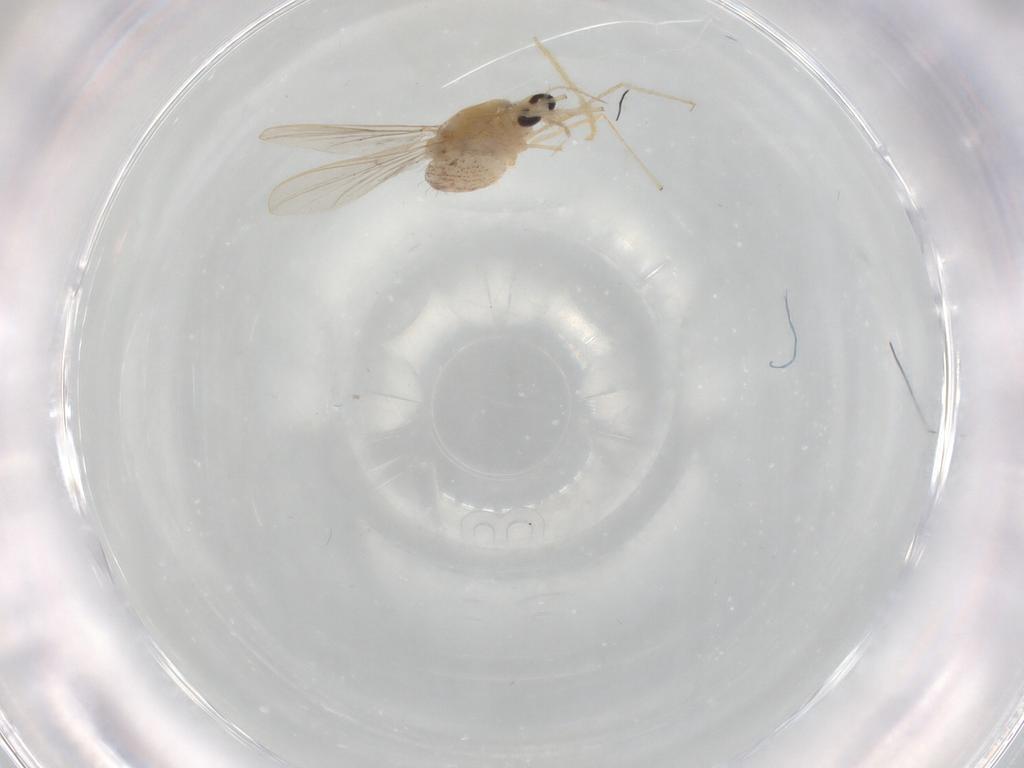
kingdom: Animalia
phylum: Arthropoda
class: Insecta
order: Diptera
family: Chironomidae
